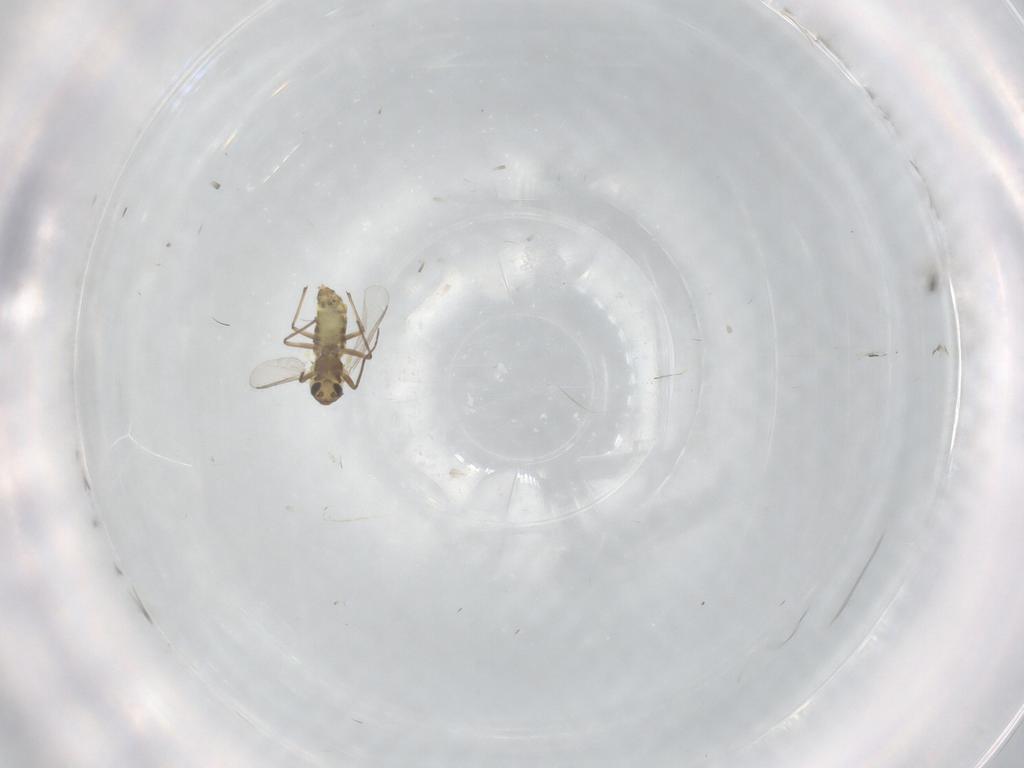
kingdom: Animalia
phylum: Arthropoda
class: Insecta
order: Diptera
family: Chironomidae
